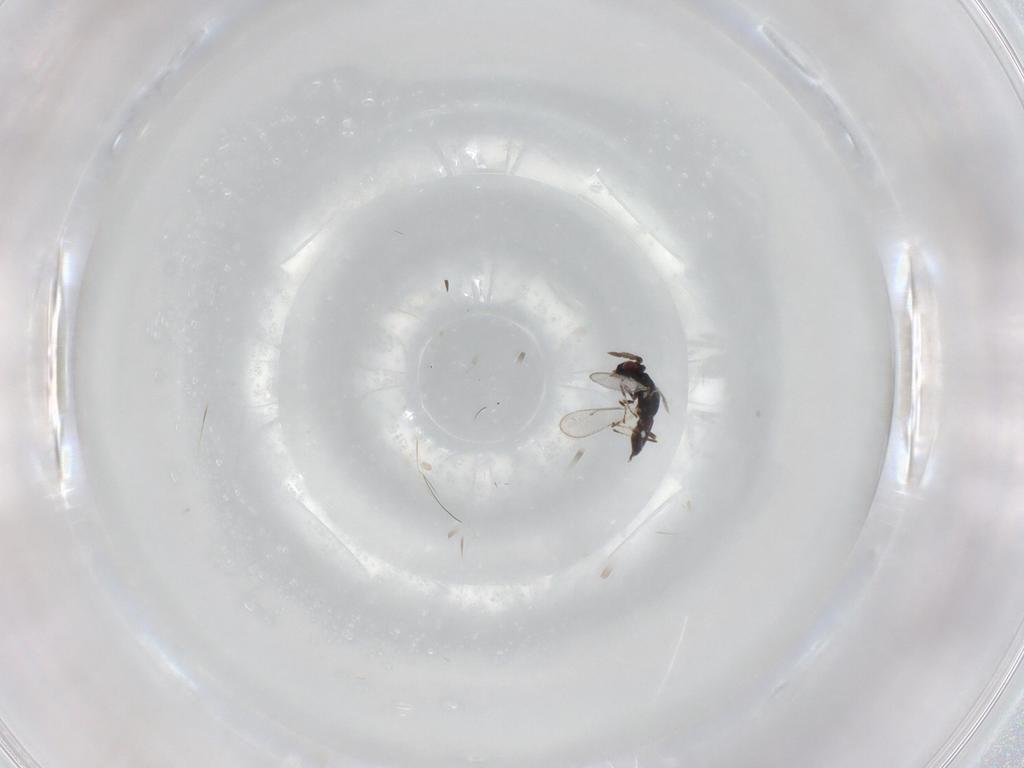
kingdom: Animalia
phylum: Arthropoda
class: Insecta
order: Hymenoptera
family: Eulophidae
